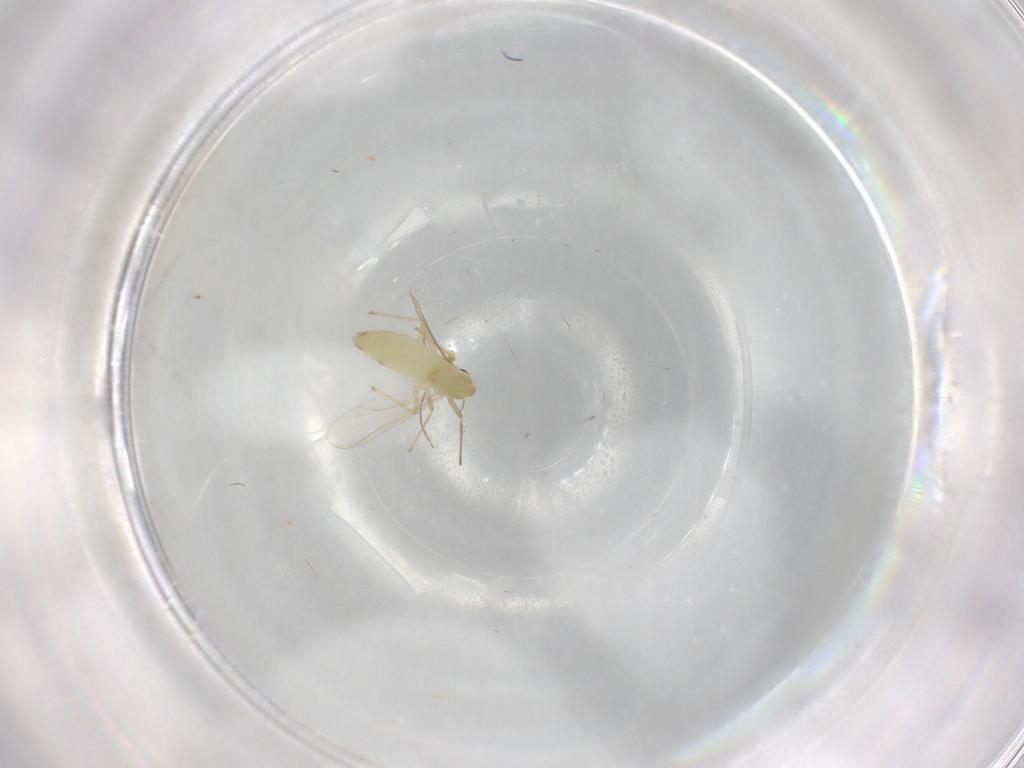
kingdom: Animalia
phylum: Arthropoda
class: Insecta
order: Diptera
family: Chironomidae
